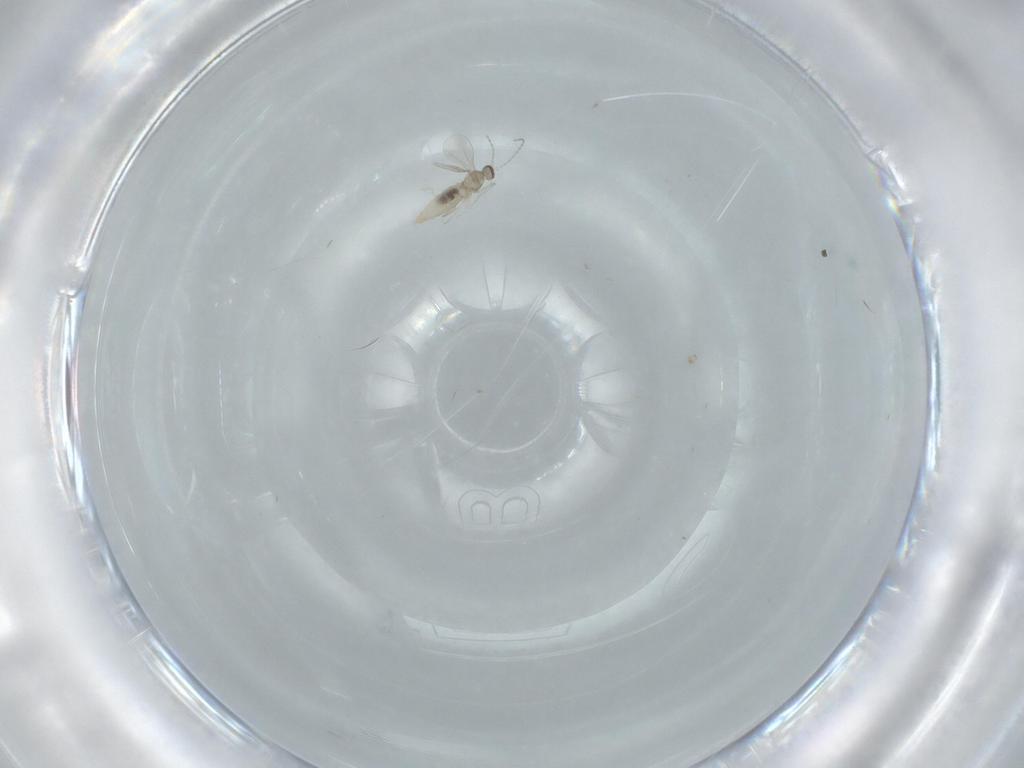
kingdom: Animalia
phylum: Arthropoda
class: Insecta
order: Diptera
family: Cecidomyiidae
